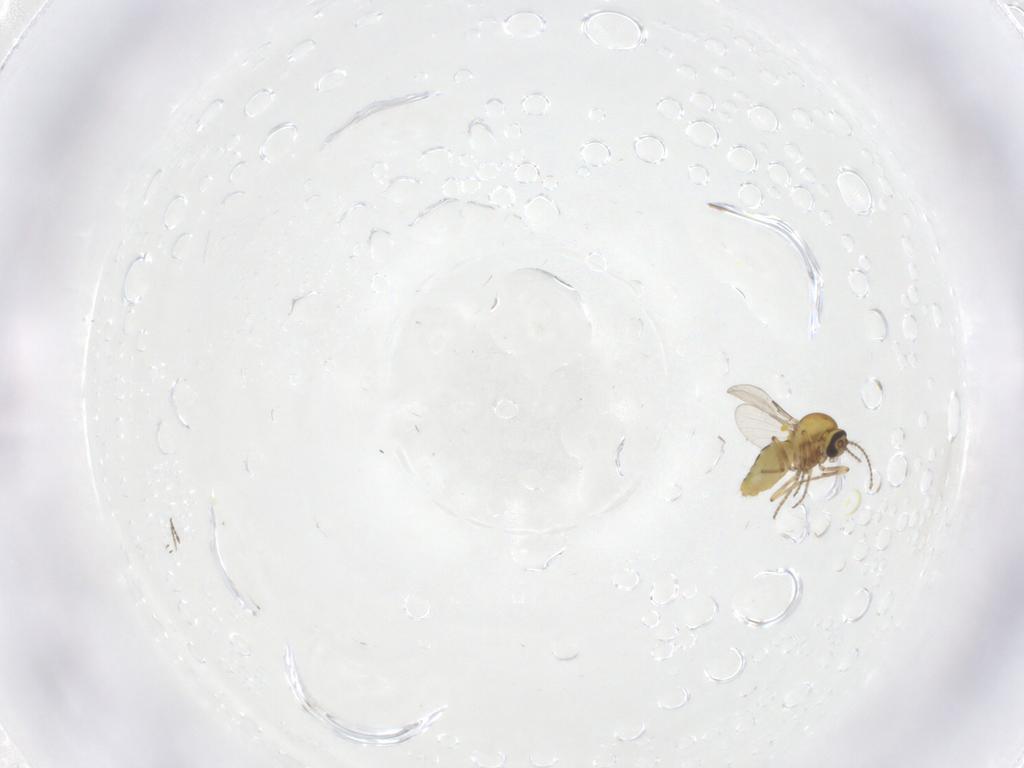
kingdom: Animalia
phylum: Arthropoda
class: Insecta
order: Diptera
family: Ceratopogonidae
